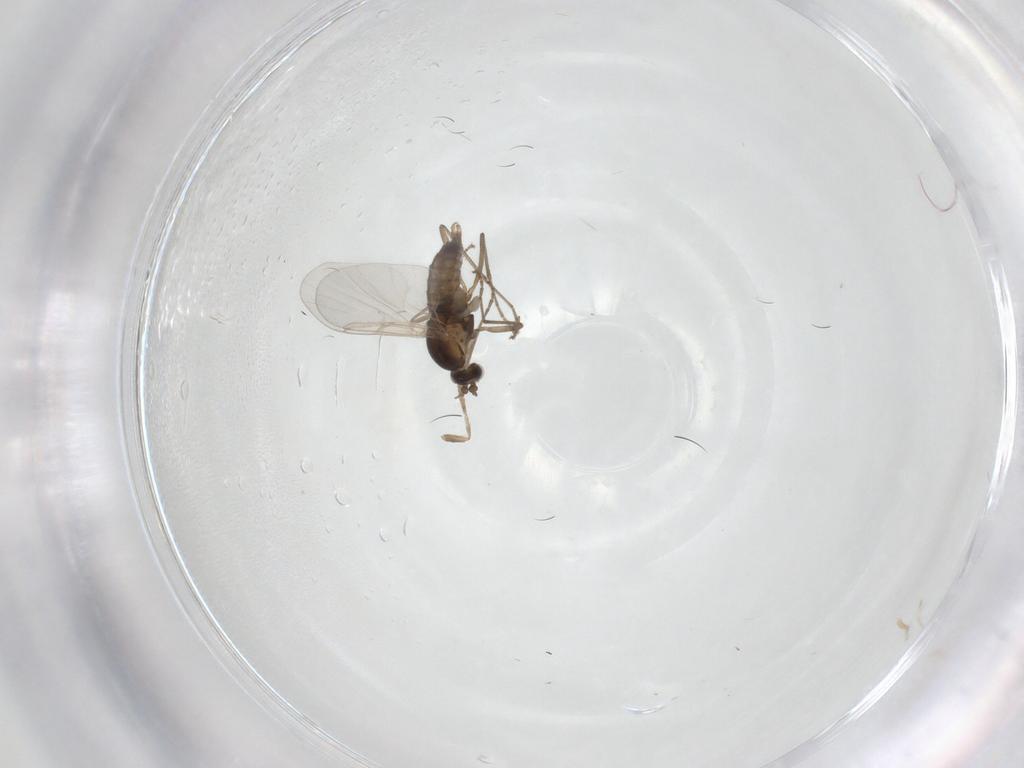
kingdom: Animalia
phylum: Arthropoda
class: Insecta
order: Diptera
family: Cecidomyiidae
